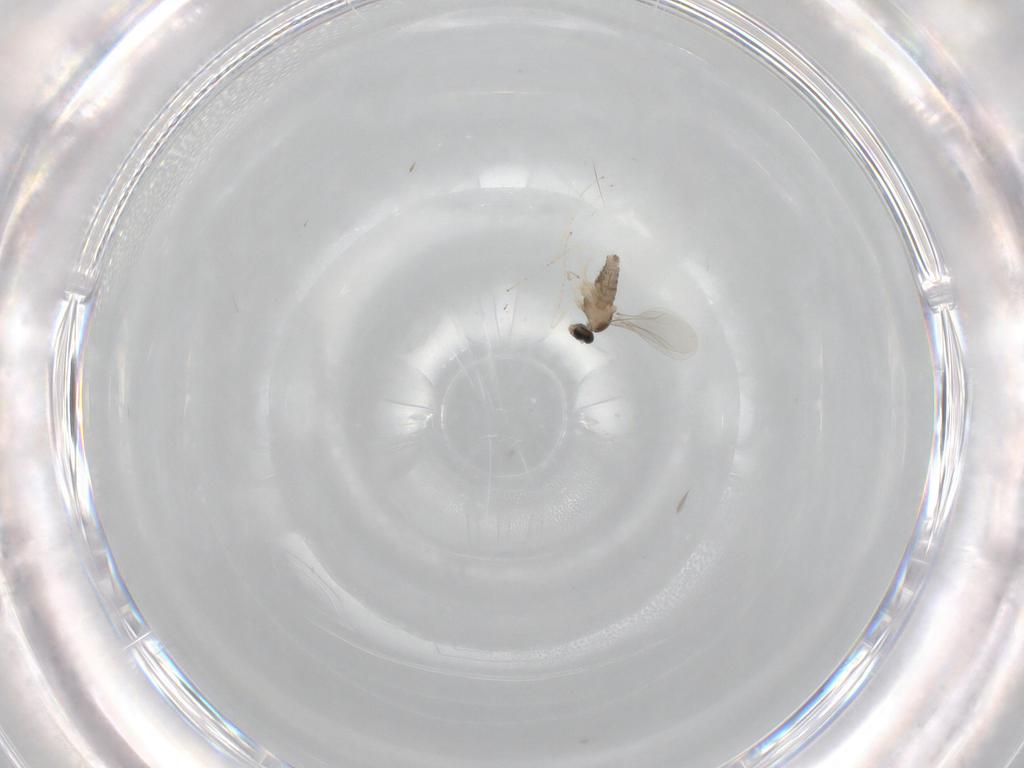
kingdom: Animalia
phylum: Arthropoda
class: Insecta
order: Diptera
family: Cecidomyiidae
